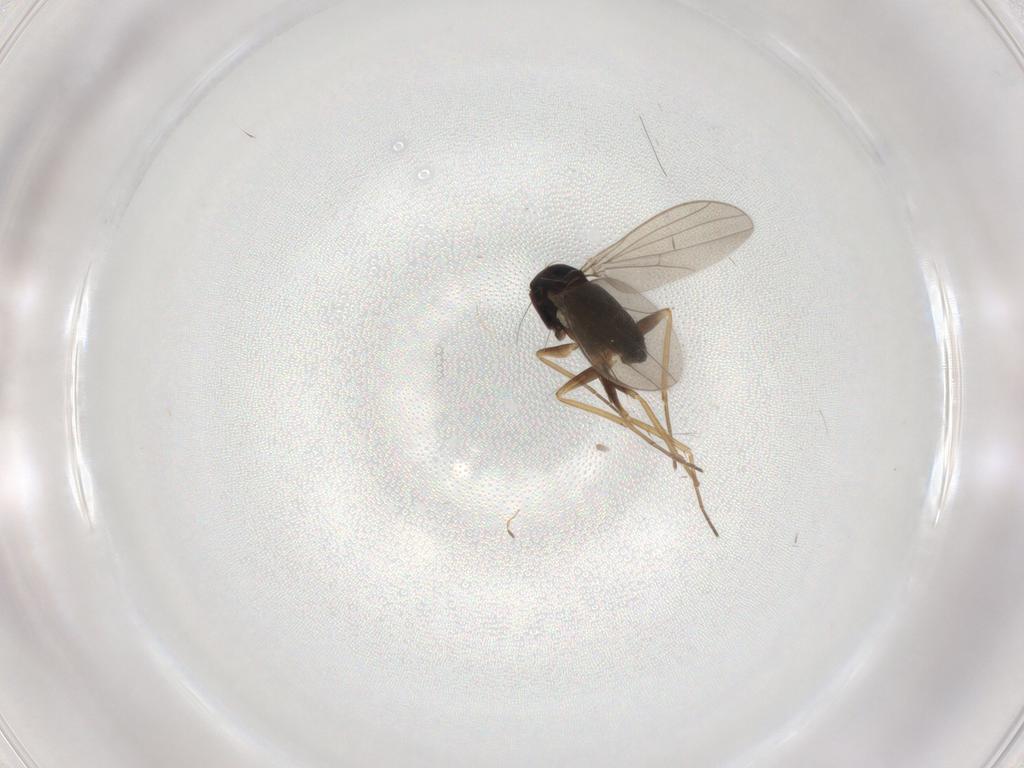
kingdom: Animalia
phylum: Arthropoda
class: Insecta
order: Diptera
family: Dolichopodidae
